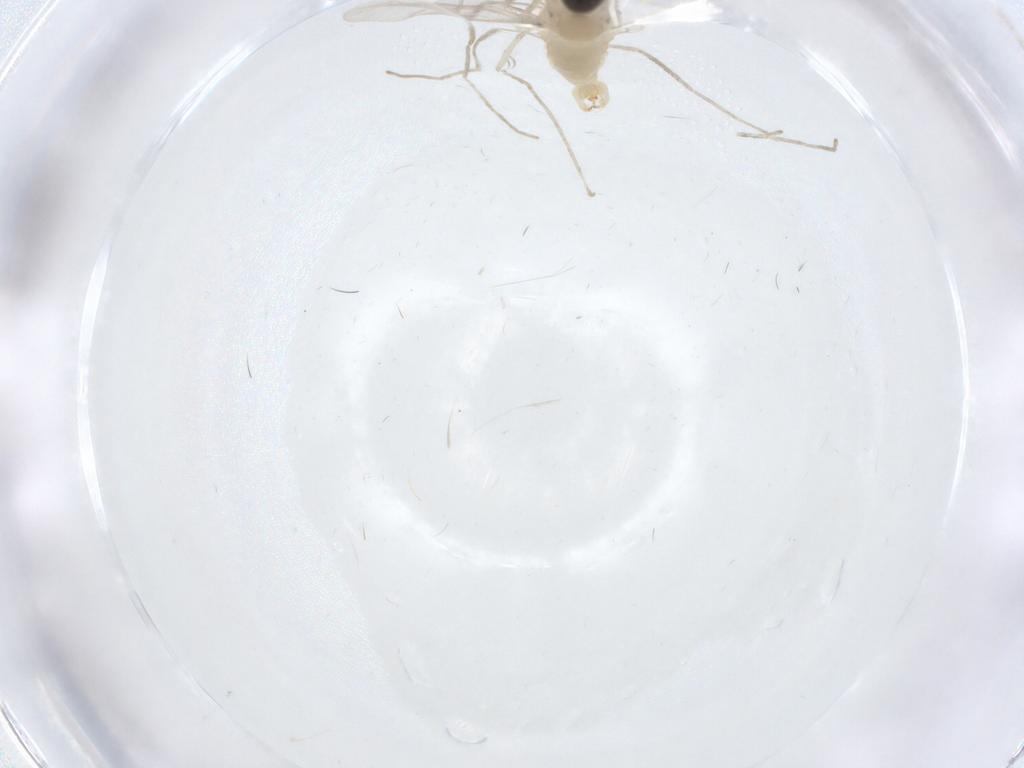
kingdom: Animalia
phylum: Arthropoda
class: Insecta
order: Diptera
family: Cecidomyiidae
